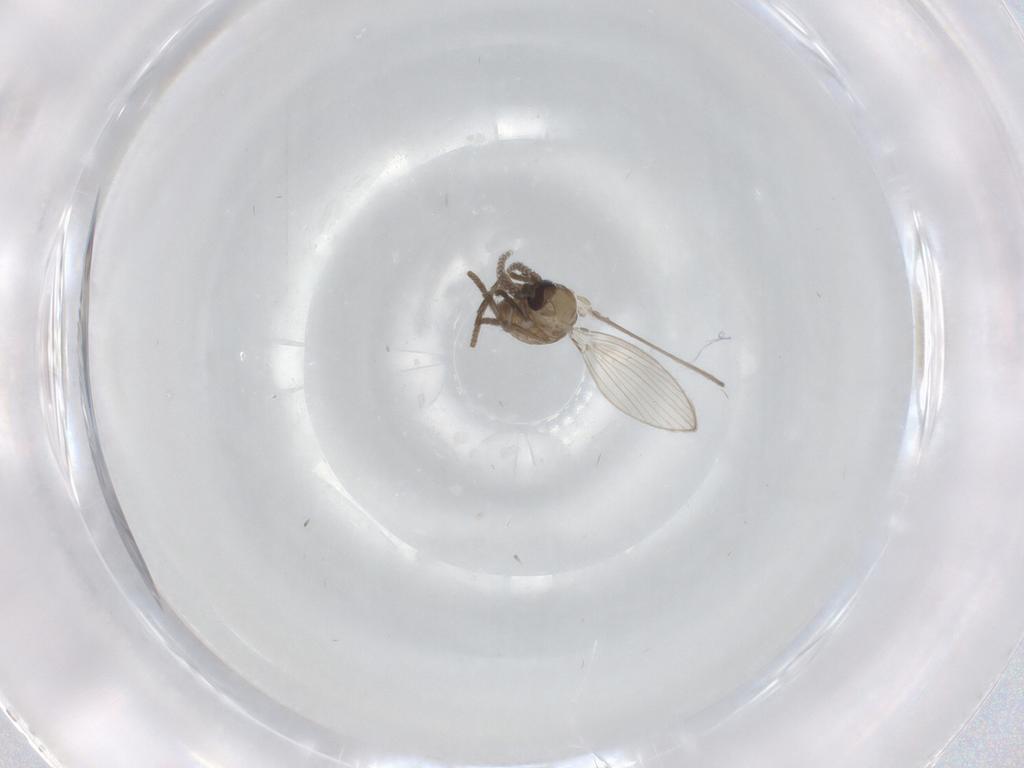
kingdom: Animalia
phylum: Arthropoda
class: Insecta
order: Diptera
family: Psychodidae
